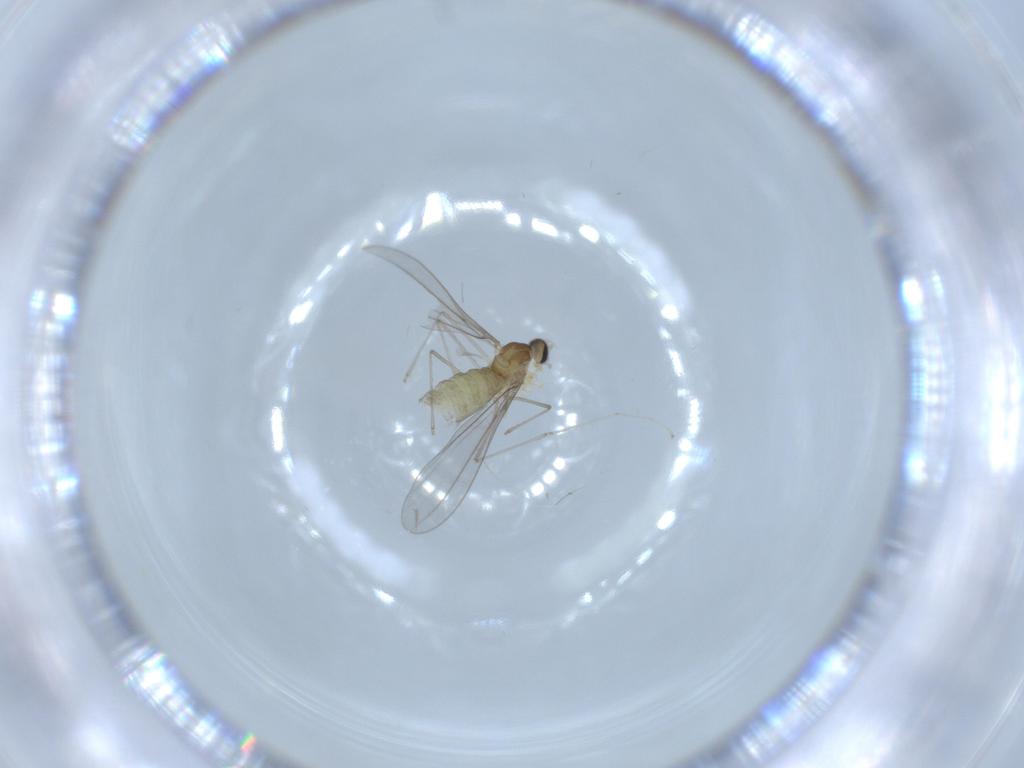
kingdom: Animalia
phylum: Arthropoda
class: Insecta
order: Diptera
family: Cecidomyiidae
